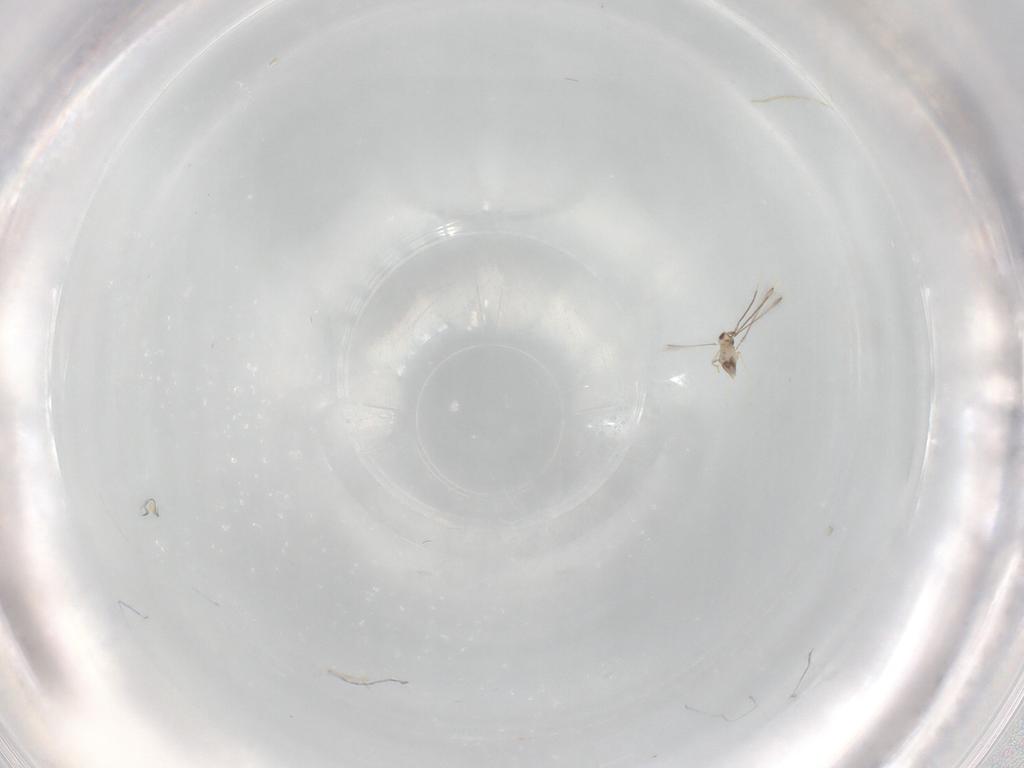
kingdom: Animalia
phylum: Arthropoda
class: Insecta
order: Hymenoptera
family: Mymaridae
